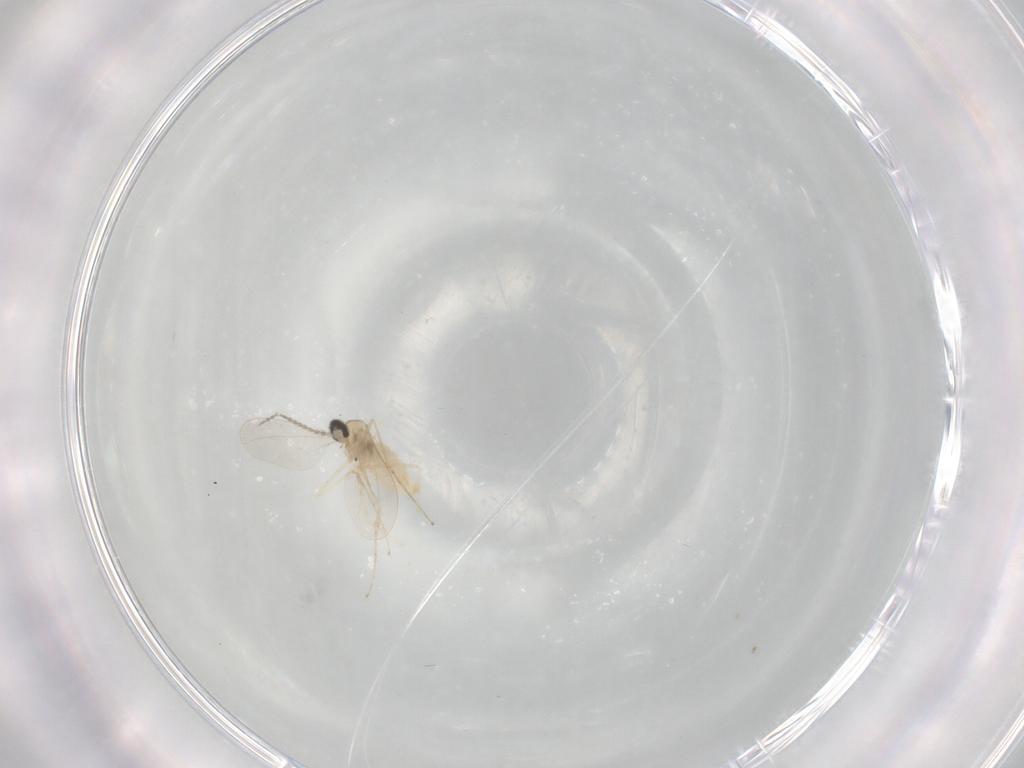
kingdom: Animalia
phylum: Arthropoda
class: Insecta
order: Diptera
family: Cecidomyiidae
